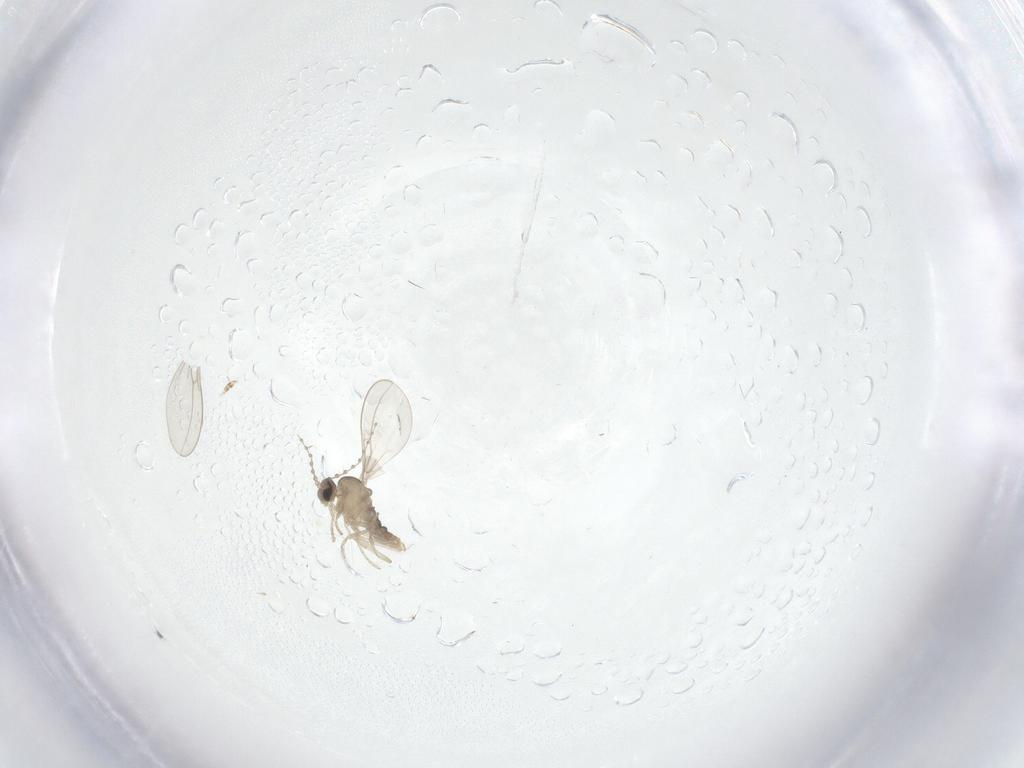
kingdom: Animalia
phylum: Arthropoda
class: Insecta
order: Diptera
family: Cecidomyiidae
